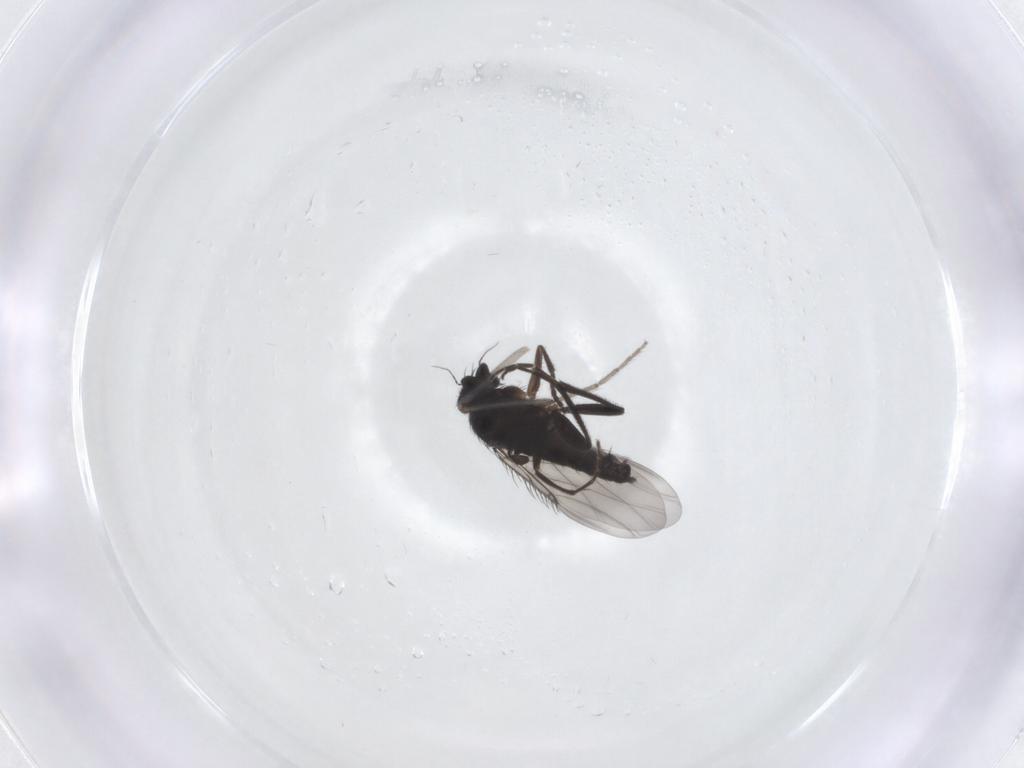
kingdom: Animalia
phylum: Arthropoda
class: Insecta
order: Diptera
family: Phoridae
